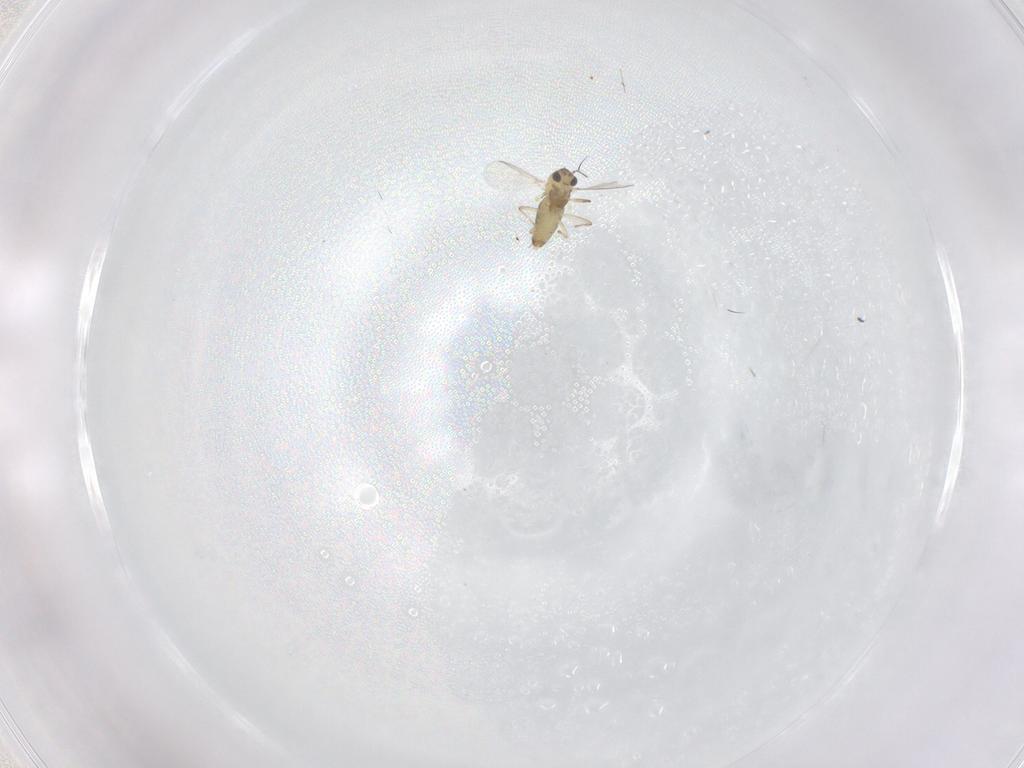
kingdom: Animalia
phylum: Arthropoda
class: Insecta
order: Diptera
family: Chironomidae
